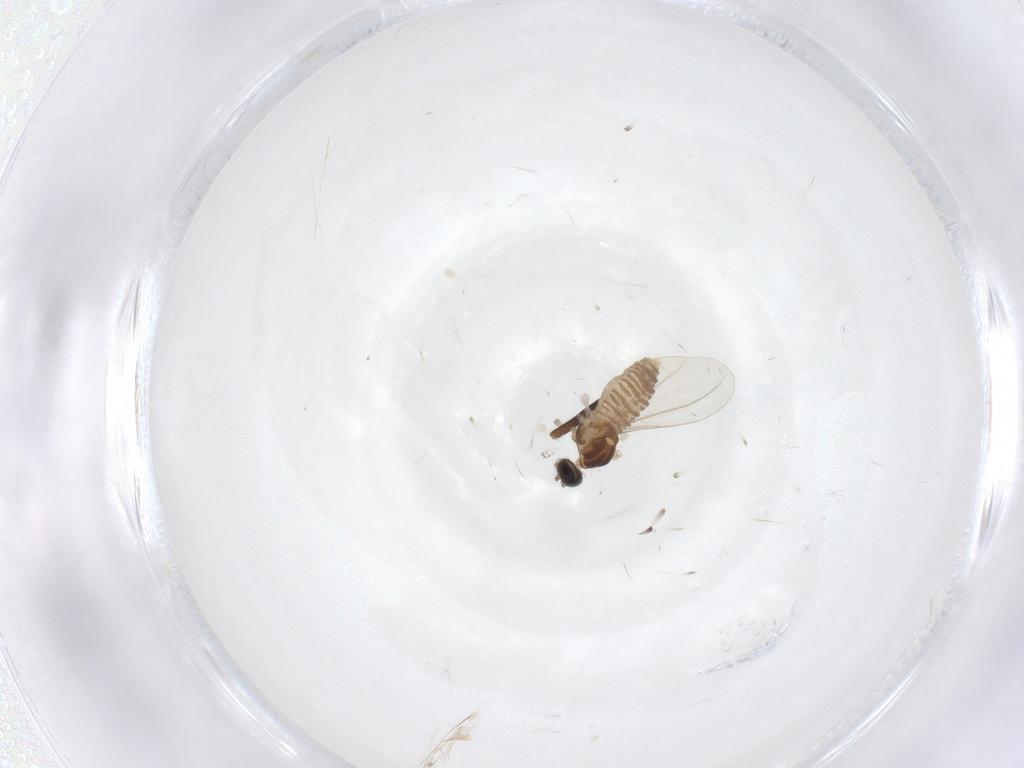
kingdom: Animalia
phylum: Arthropoda
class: Insecta
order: Diptera
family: Cecidomyiidae
